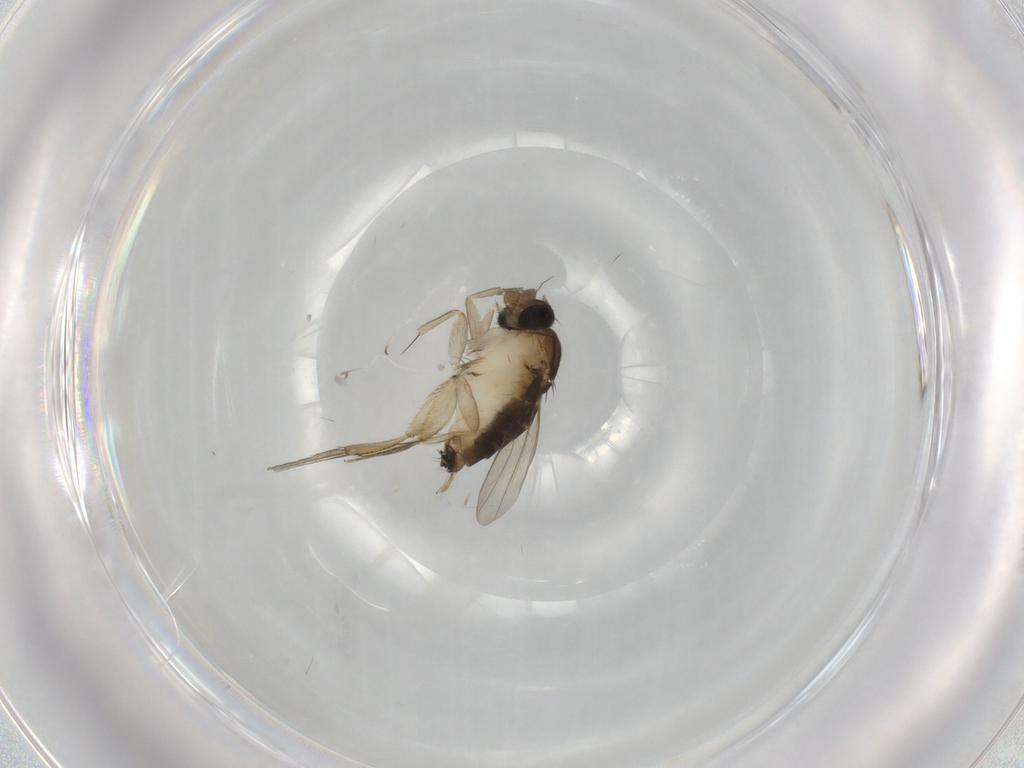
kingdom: Animalia
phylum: Arthropoda
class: Insecta
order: Diptera
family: Phoridae
